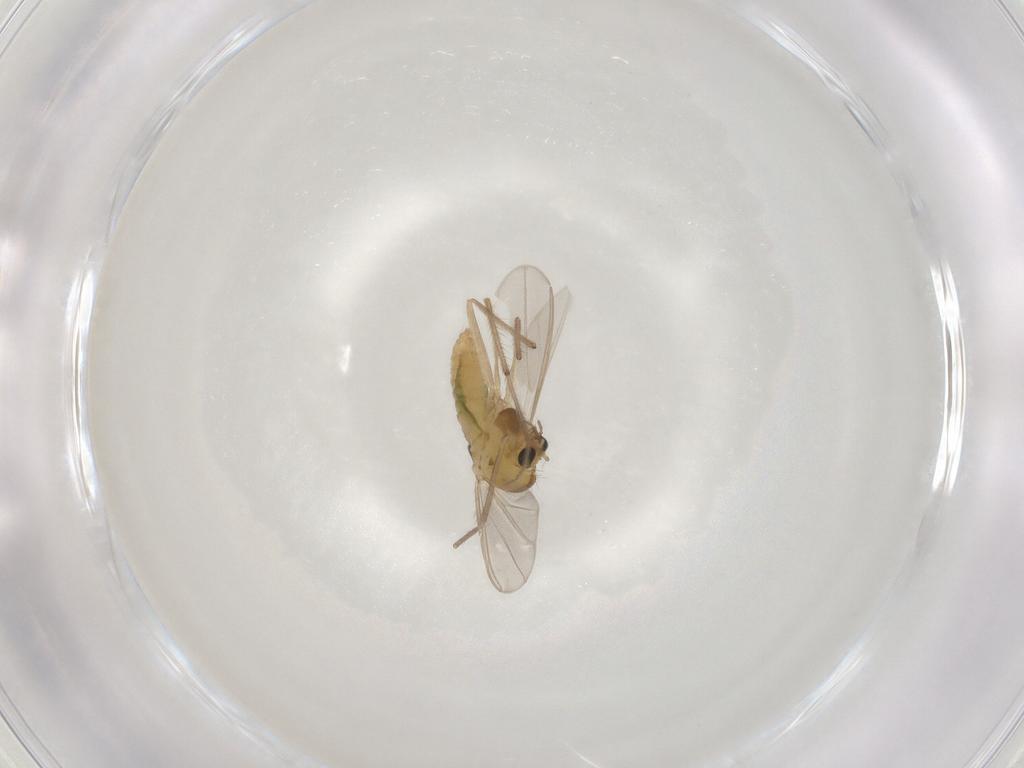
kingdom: Animalia
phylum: Arthropoda
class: Insecta
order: Diptera
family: Chironomidae
